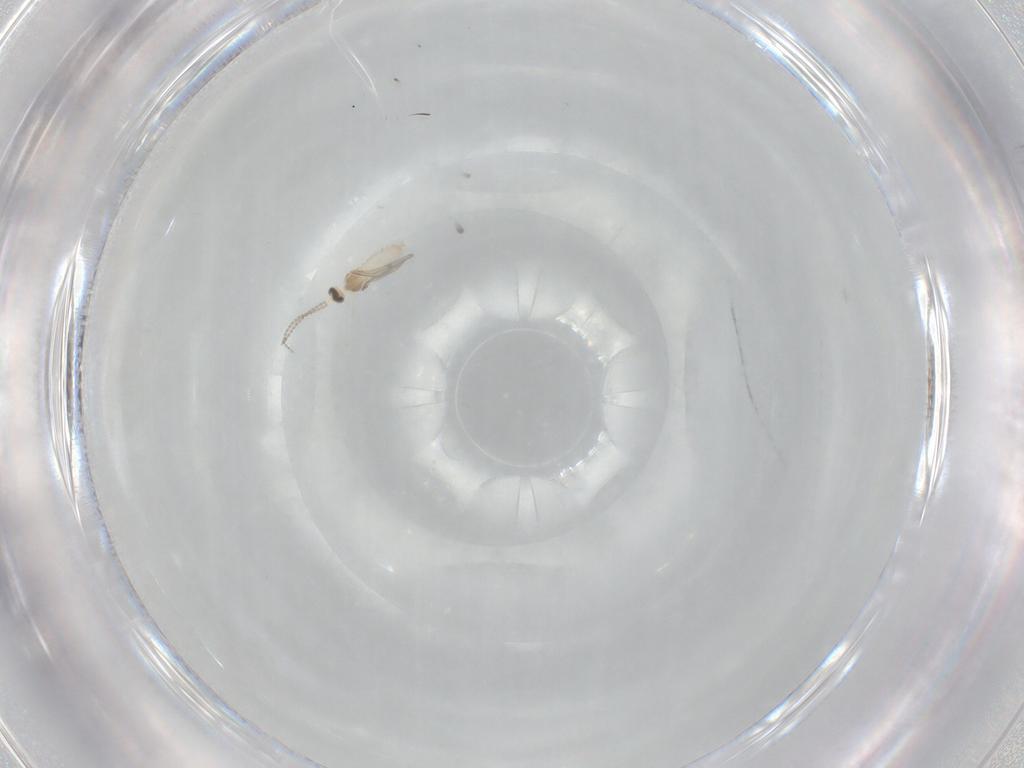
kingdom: Animalia
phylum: Arthropoda
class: Insecta
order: Diptera
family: Cecidomyiidae
